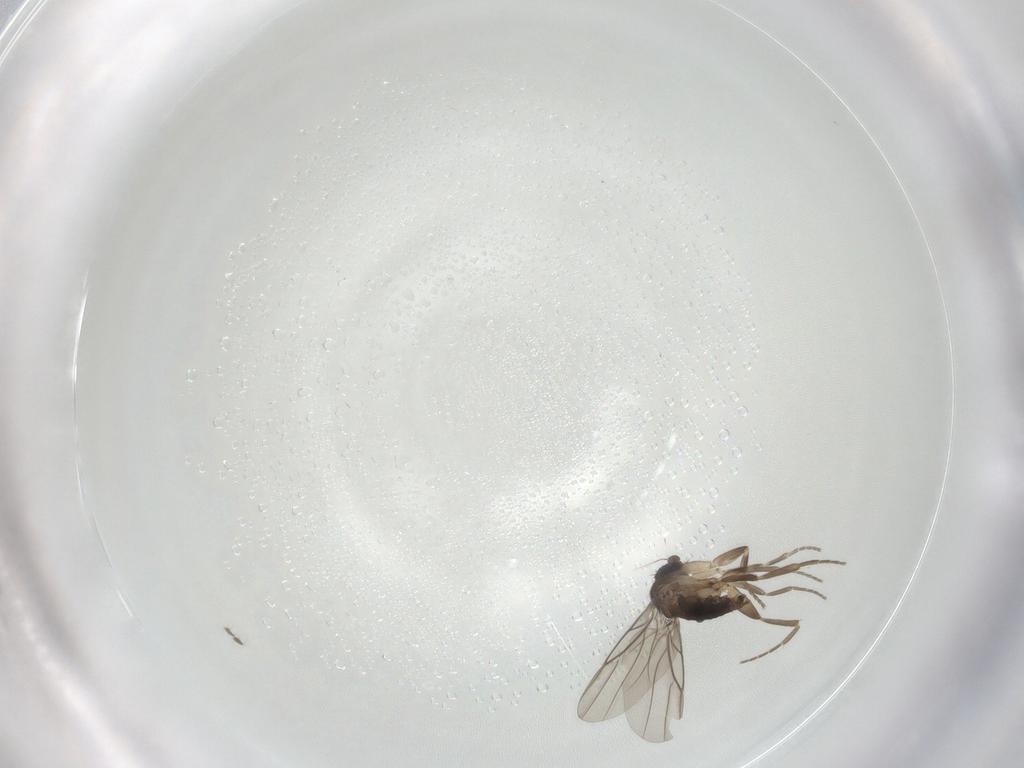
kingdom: Animalia
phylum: Arthropoda
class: Insecta
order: Diptera
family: Phoridae
